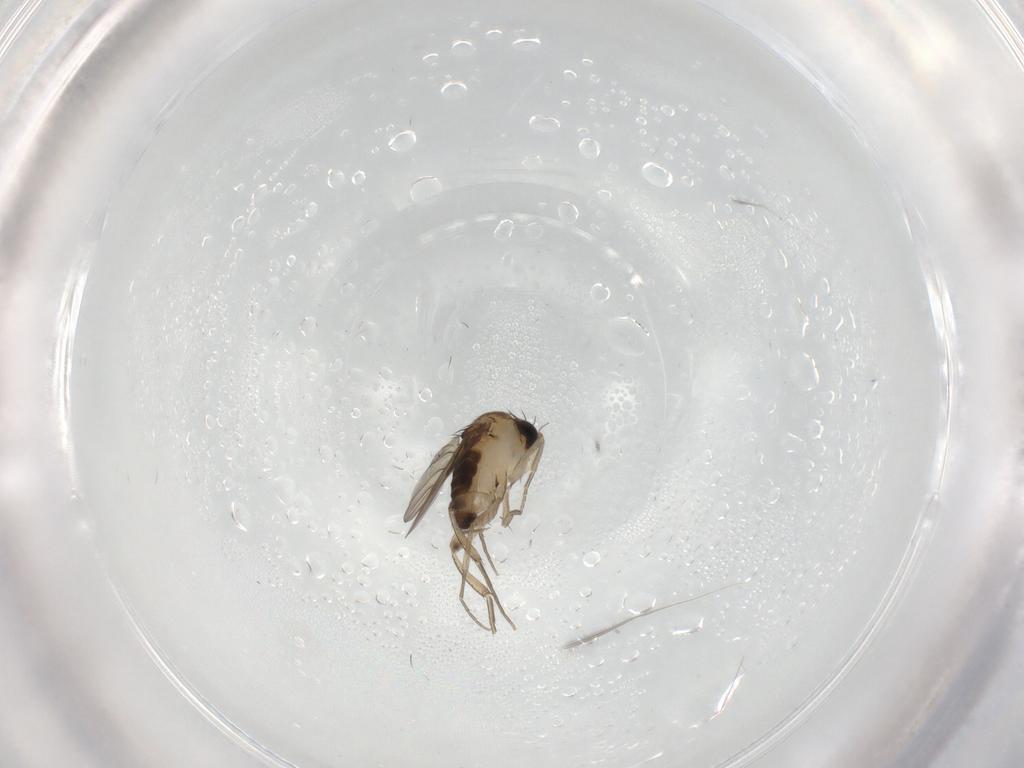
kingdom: Animalia
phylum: Arthropoda
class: Insecta
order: Diptera
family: Phoridae
